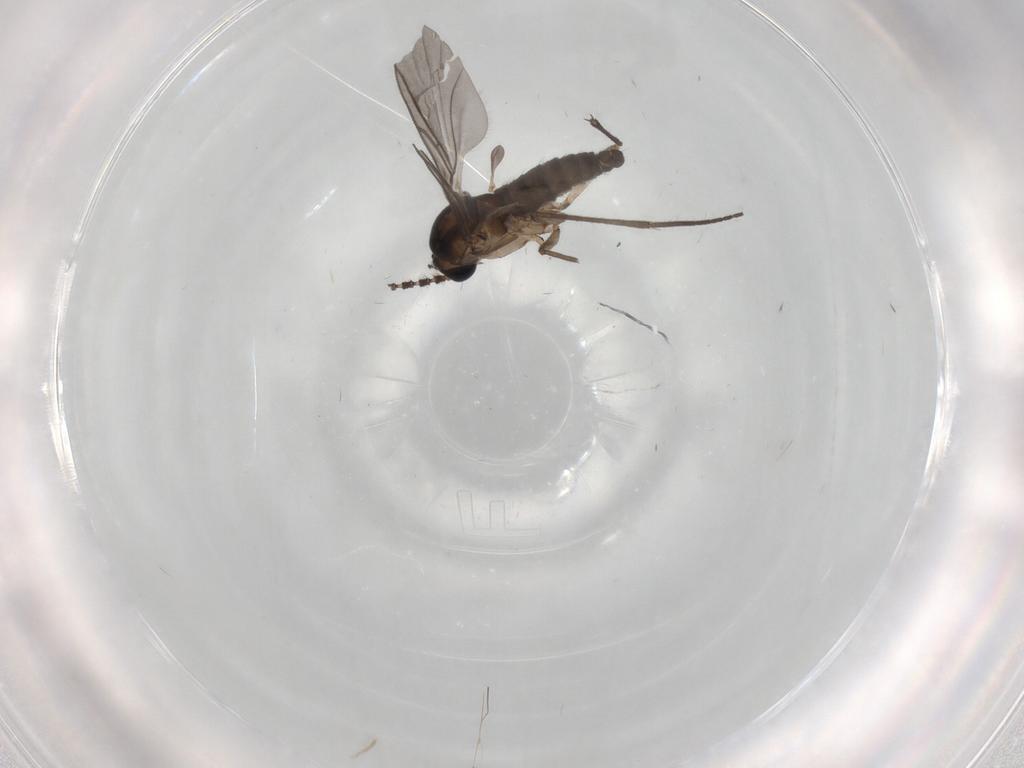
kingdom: Animalia
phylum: Arthropoda
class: Insecta
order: Diptera
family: Sciaridae
